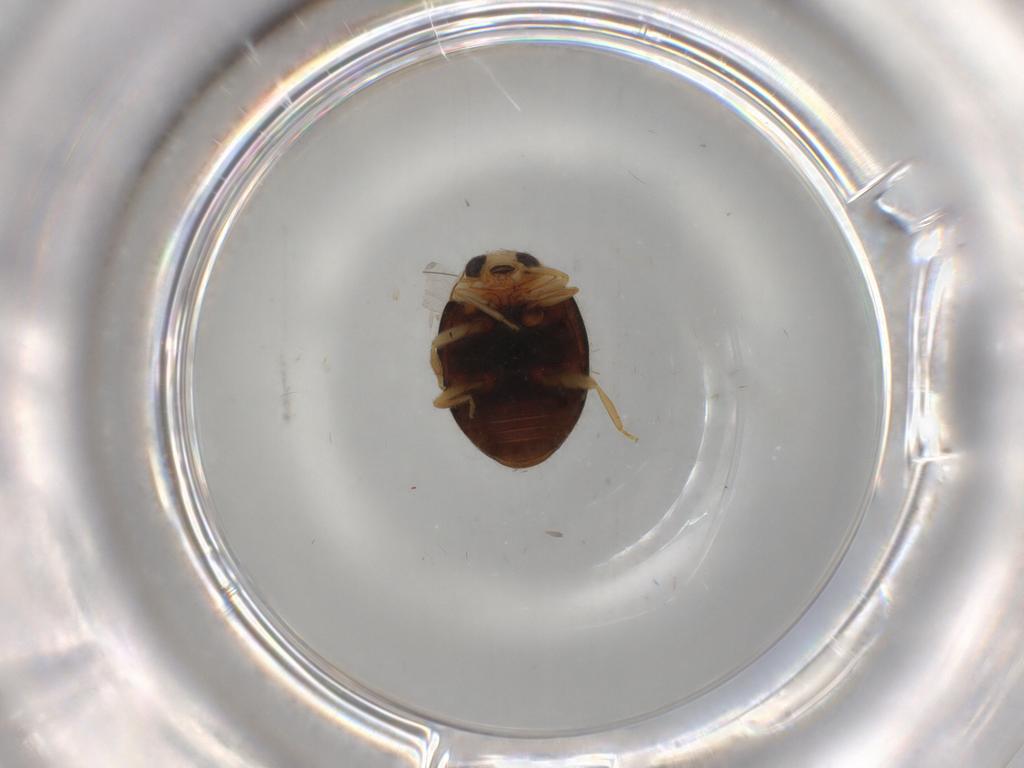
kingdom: Animalia
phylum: Arthropoda
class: Insecta
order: Coleoptera
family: Coccinellidae
